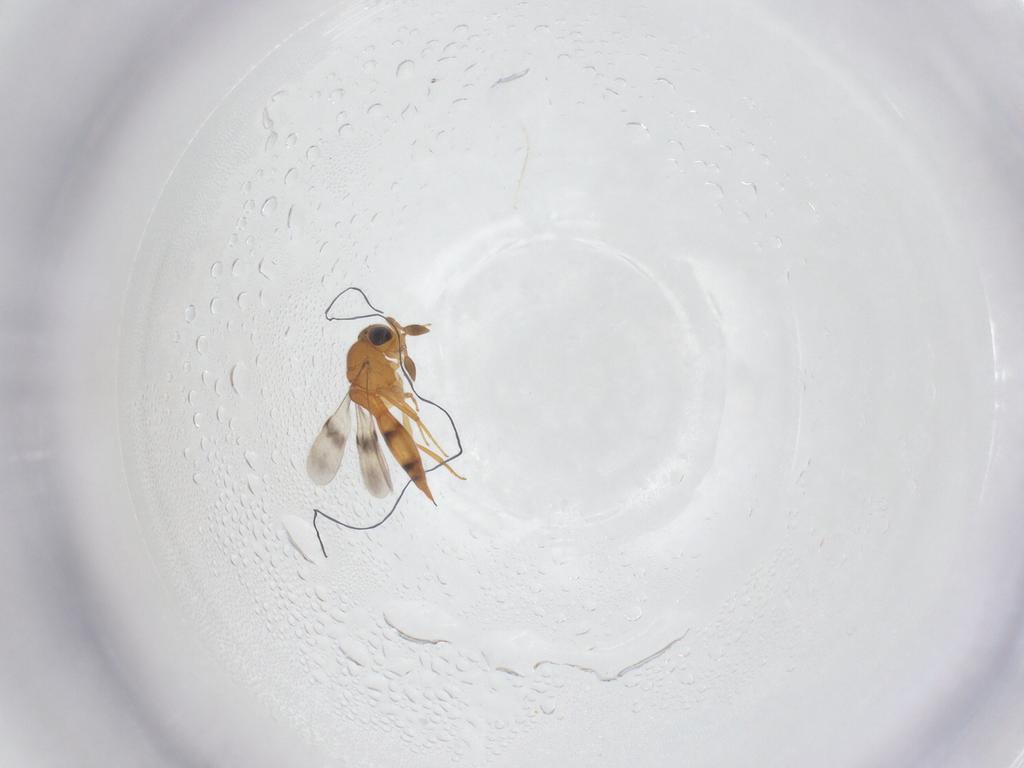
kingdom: Animalia
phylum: Arthropoda
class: Insecta
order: Hymenoptera
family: Scelionidae
